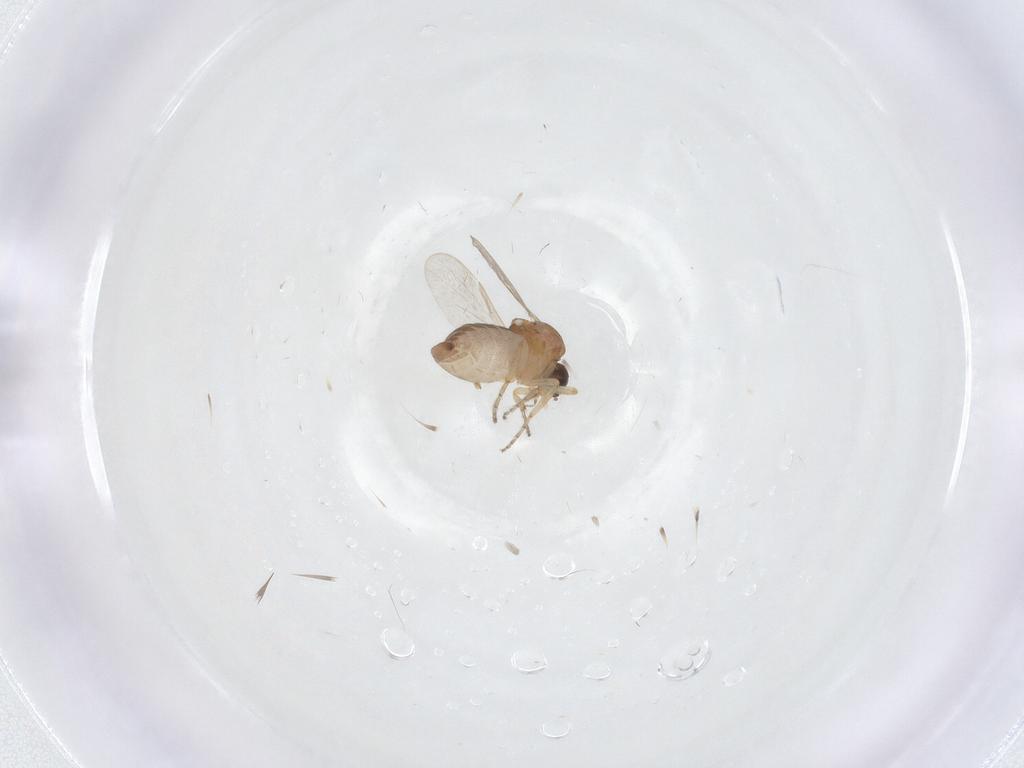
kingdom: Animalia
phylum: Arthropoda
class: Insecta
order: Diptera
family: Ceratopogonidae
